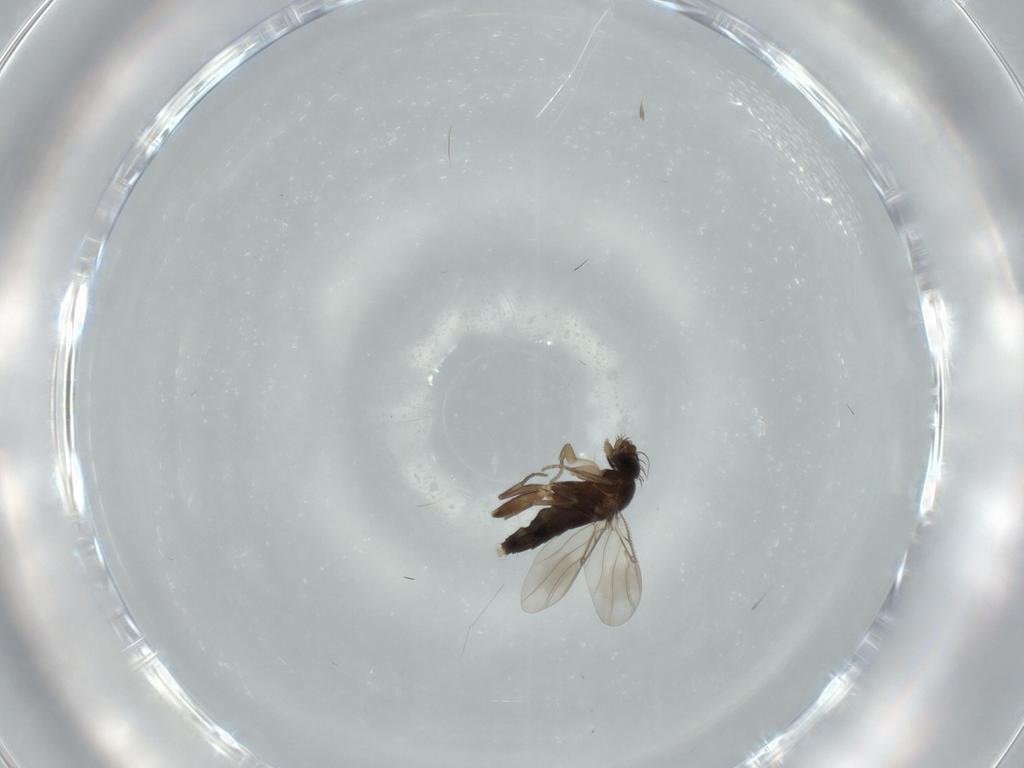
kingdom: Animalia
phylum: Arthropoda
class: Insecta
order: Diptera
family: Phoridae
